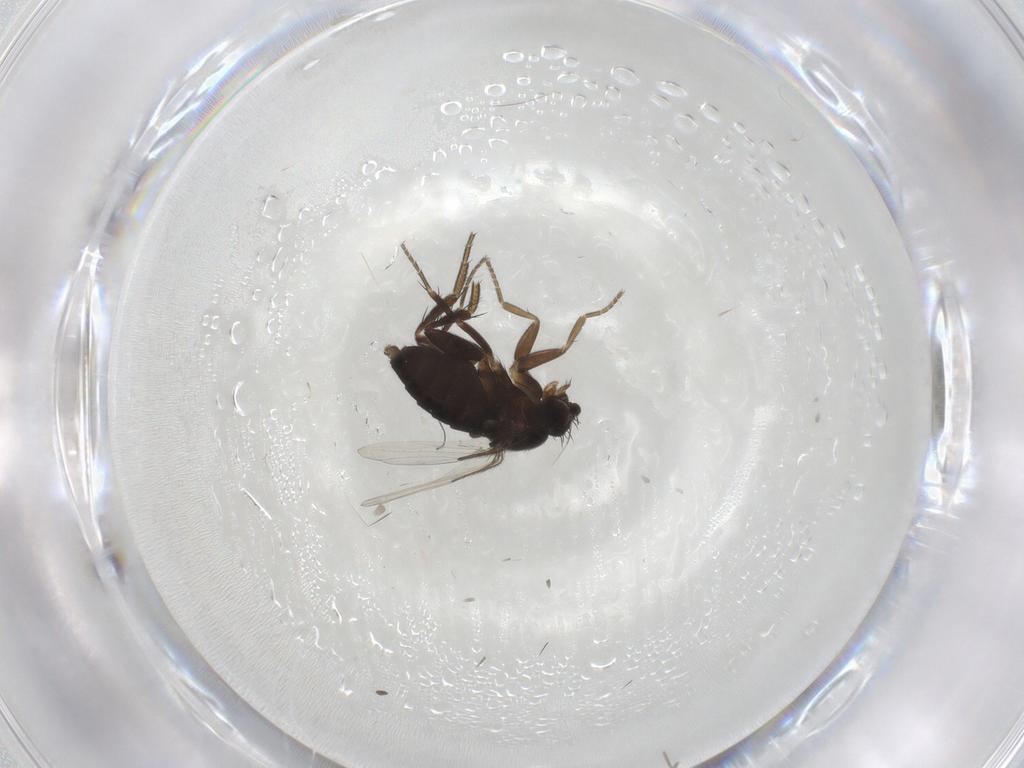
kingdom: Animalia
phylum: Arthropoda
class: Insecta
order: Diptera
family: Phoridae
